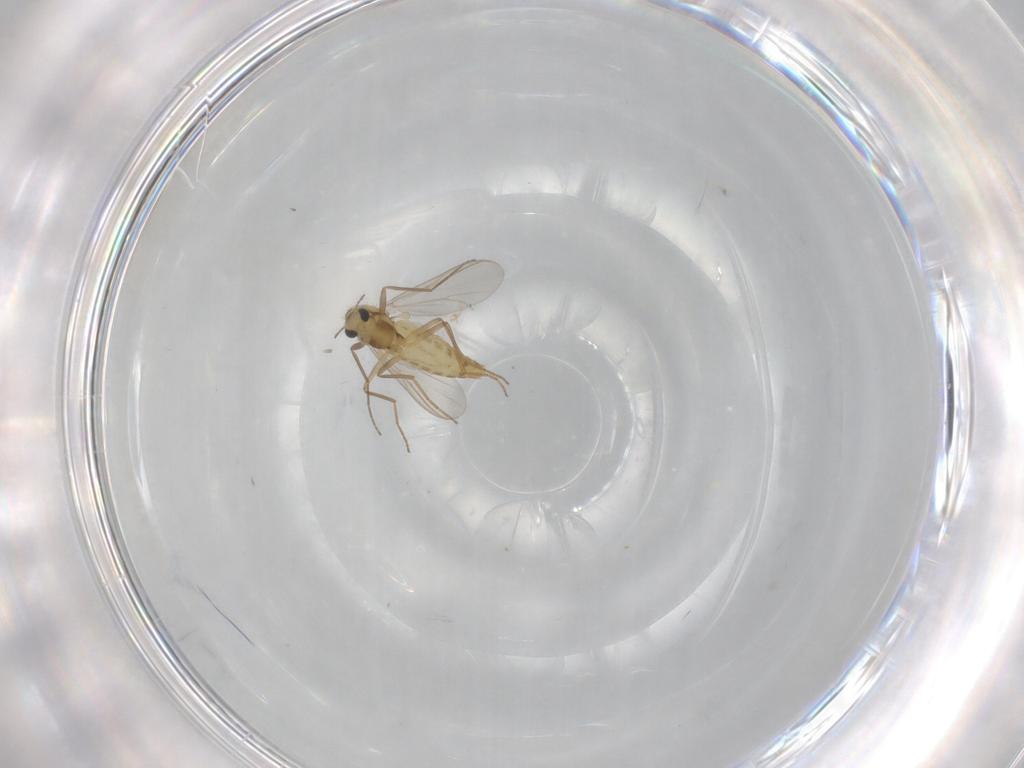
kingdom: Animalia
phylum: Arthropoda
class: Insecta
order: Diptera
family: Chironomidae
